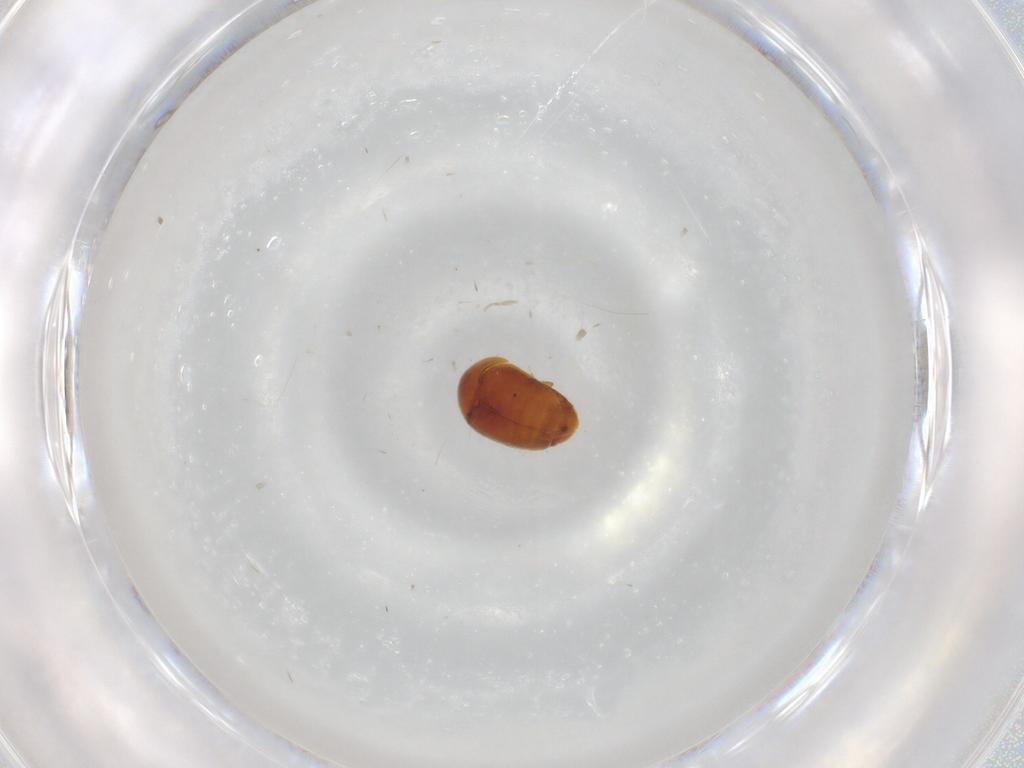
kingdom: Animalia
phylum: Arthropoda
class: Insecta
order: Coleoptera
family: Corylophidae
